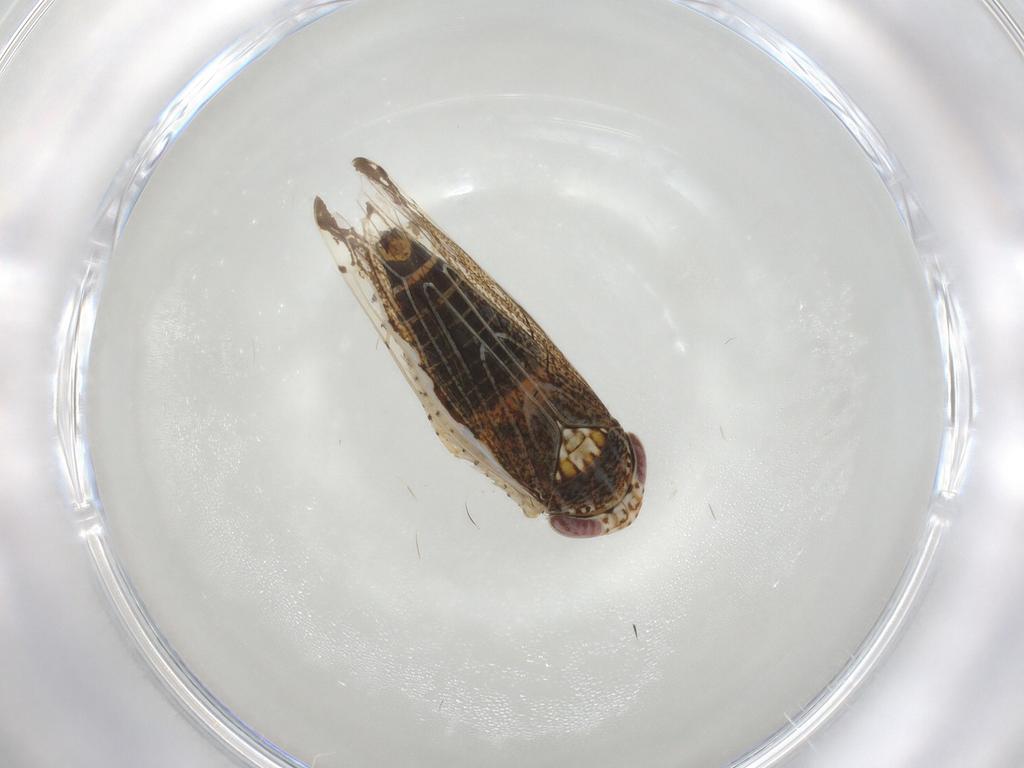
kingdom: Animalia
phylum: Arthropoda
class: Insecta
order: Hemiptera
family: Cicadellidae
